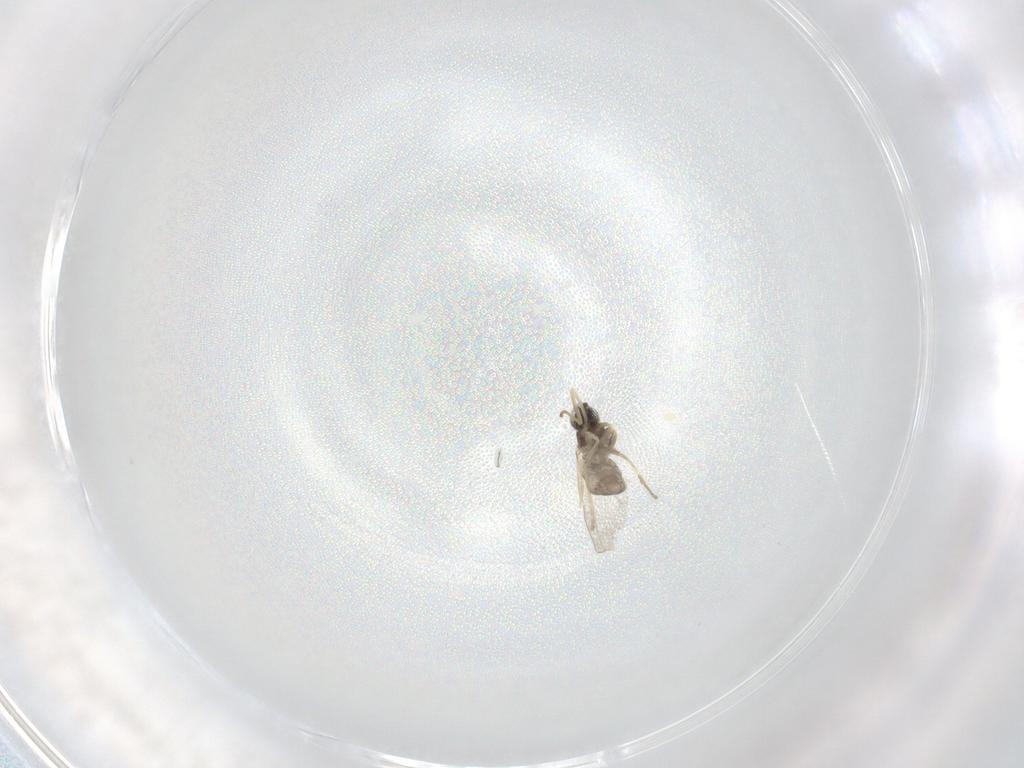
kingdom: Animalia
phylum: Arthropoda
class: Insecta
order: Diptera
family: Cecidomyiidae
